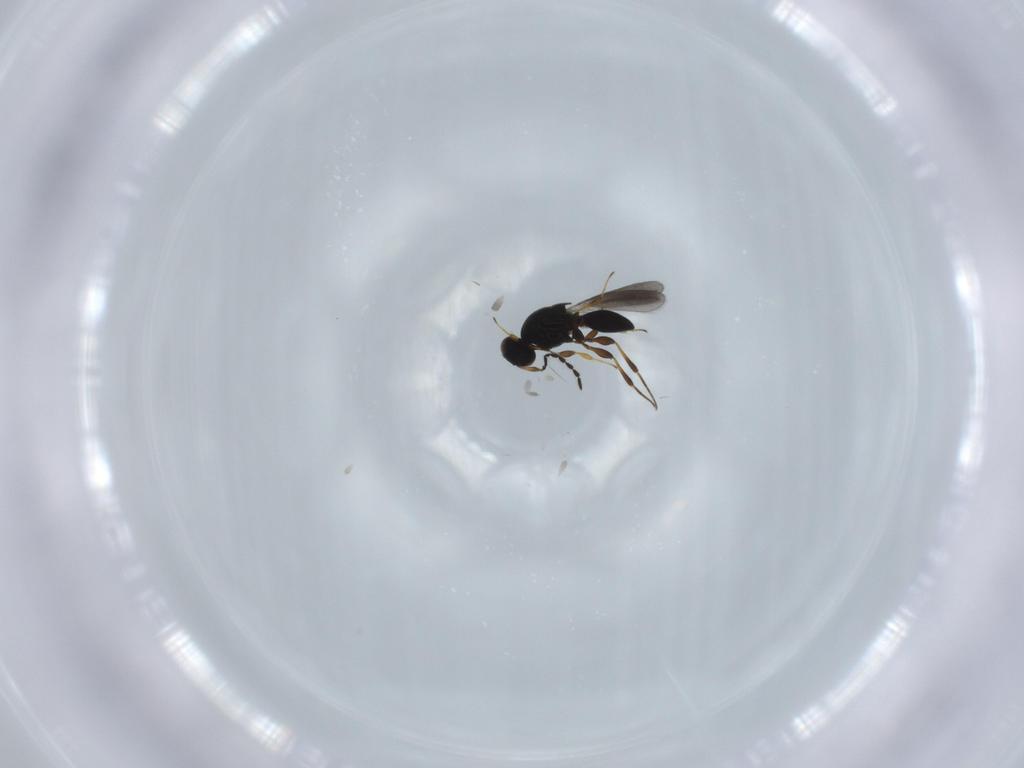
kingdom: Animalia
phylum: Arthropoda
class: Insecta
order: Hymenoptera
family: Platygastridae
